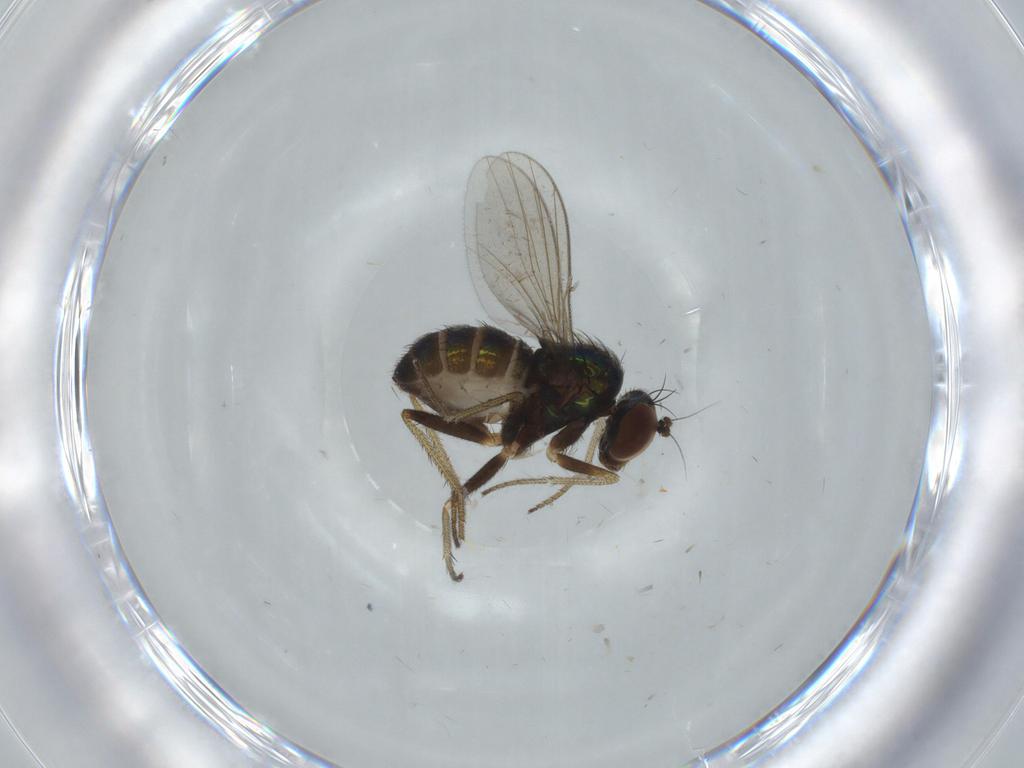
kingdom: Animalia
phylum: Arthropoda
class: Insecta
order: Diptera
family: Chironomidae
